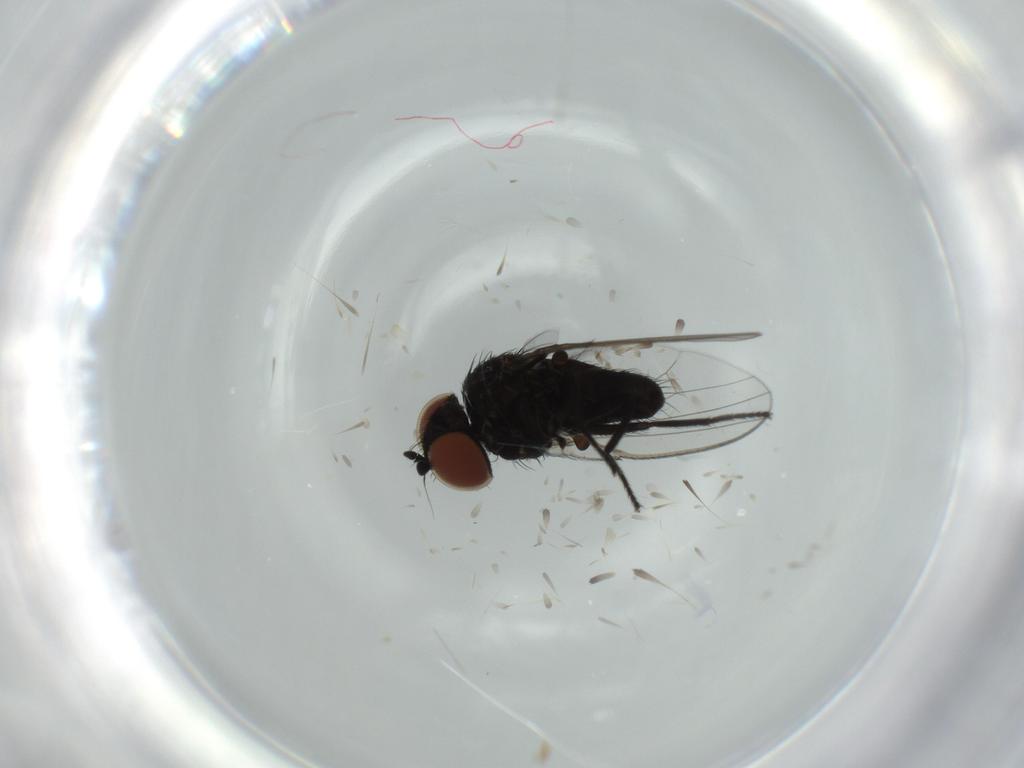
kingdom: Animalia
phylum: Arthropoda
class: Insecta
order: Diptera
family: Sciaridae
